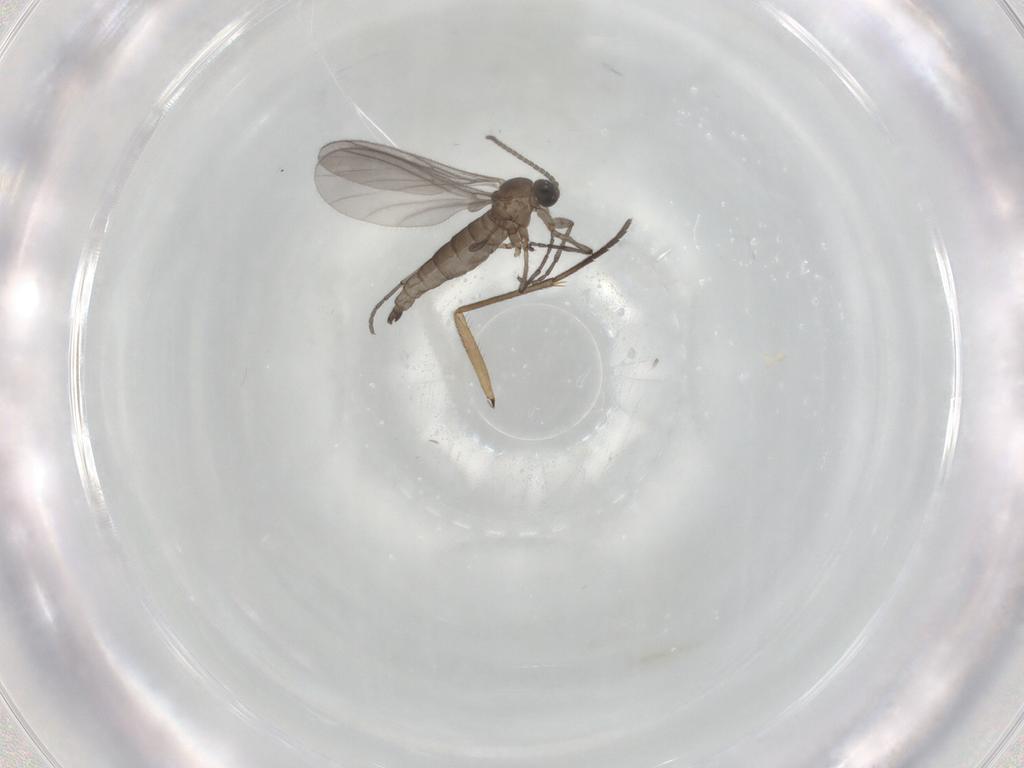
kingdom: Animalia
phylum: Arthropoda
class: Insecta
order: Diptera
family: Sciaridae
